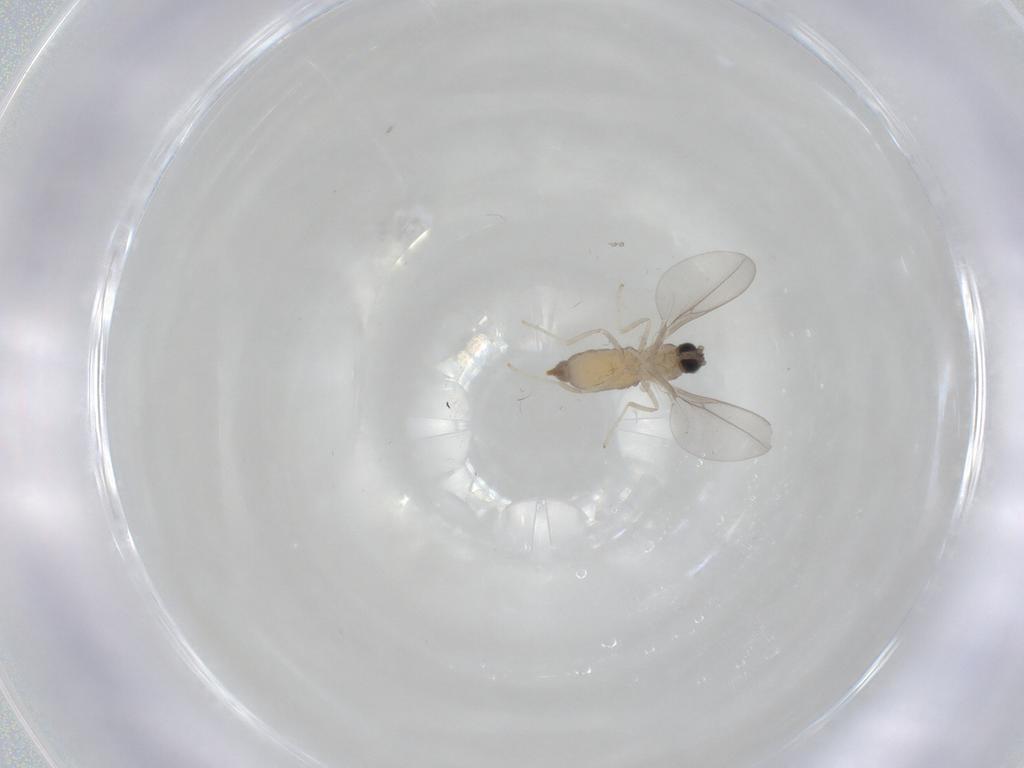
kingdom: Animalia
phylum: Arthropoda
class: Insecta
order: Diptera
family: Cecidomyiidae
